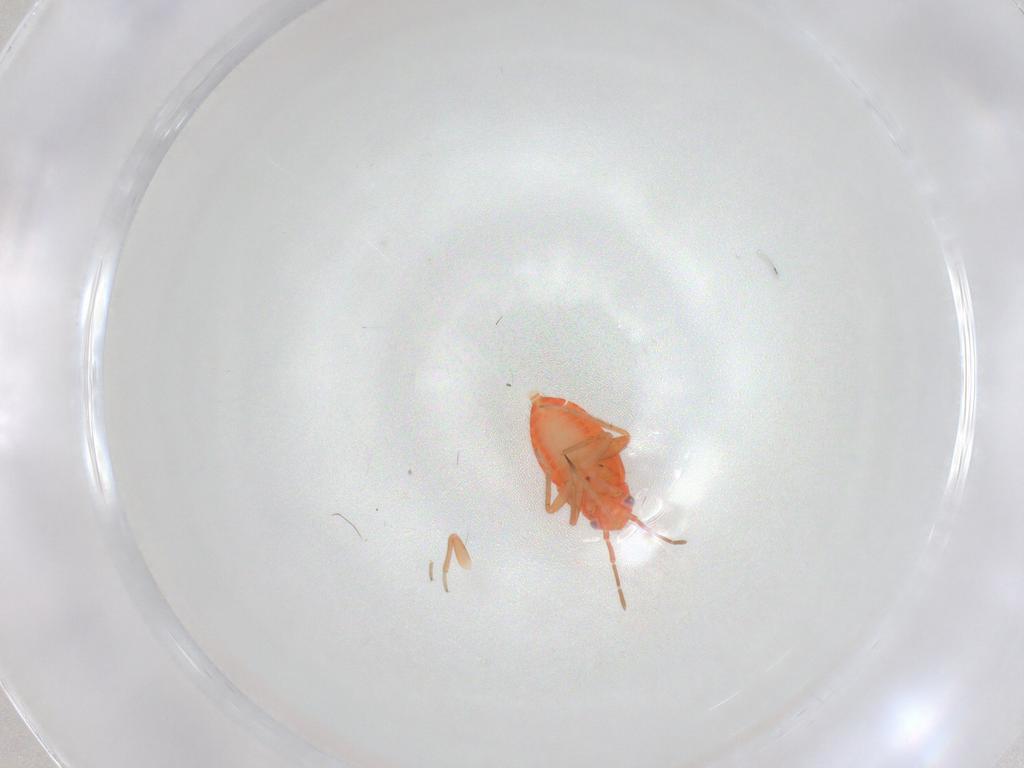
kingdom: Animalia
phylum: Arthropoda
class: Insecta
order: Hemiptera
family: Miridae
